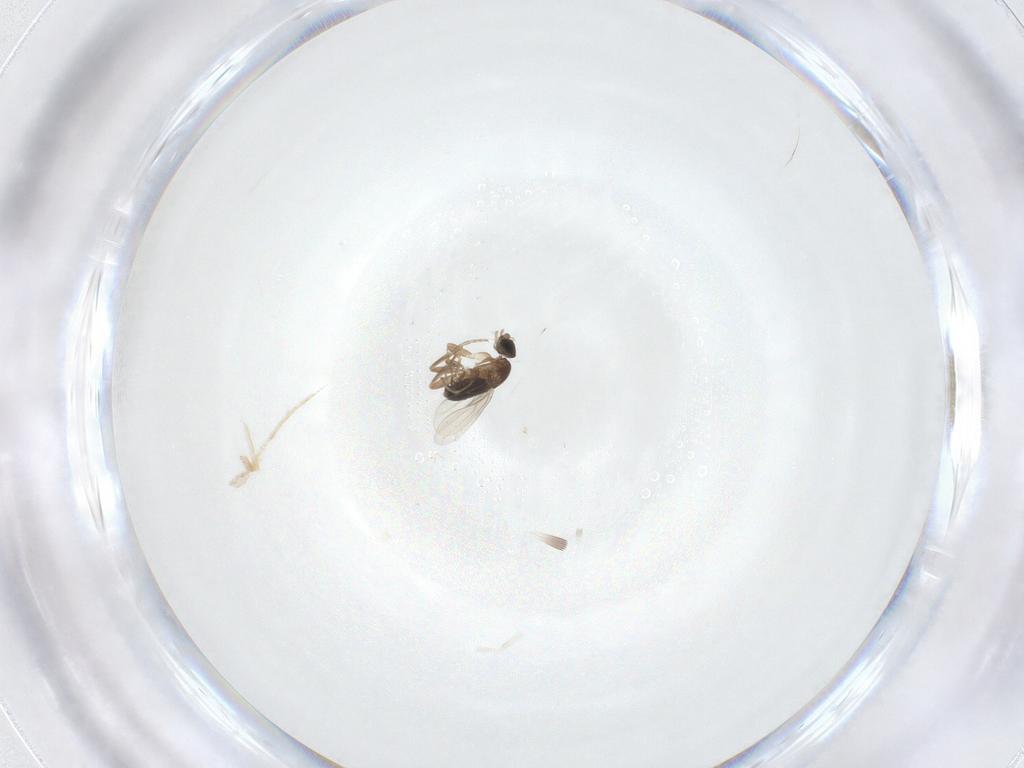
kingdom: Animalia
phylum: Arthropoda
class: Insecta
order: Diptera
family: Phoridae
